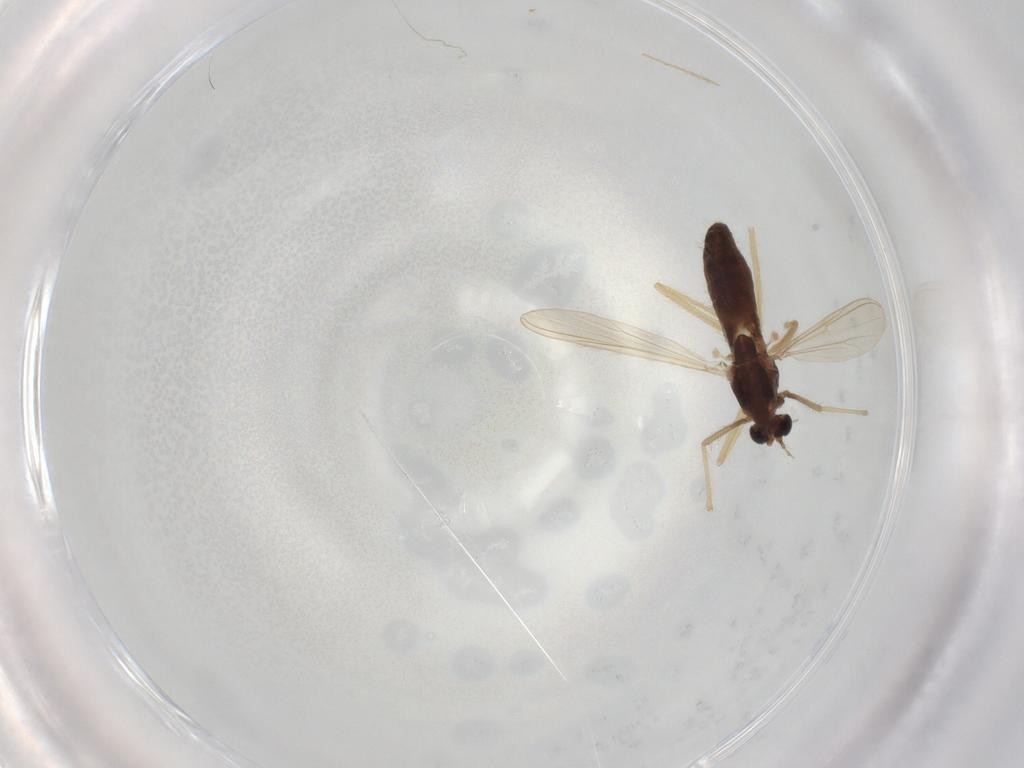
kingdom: Animalia
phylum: Arthropoda
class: Insecta
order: Diptera
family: Chironomidae
